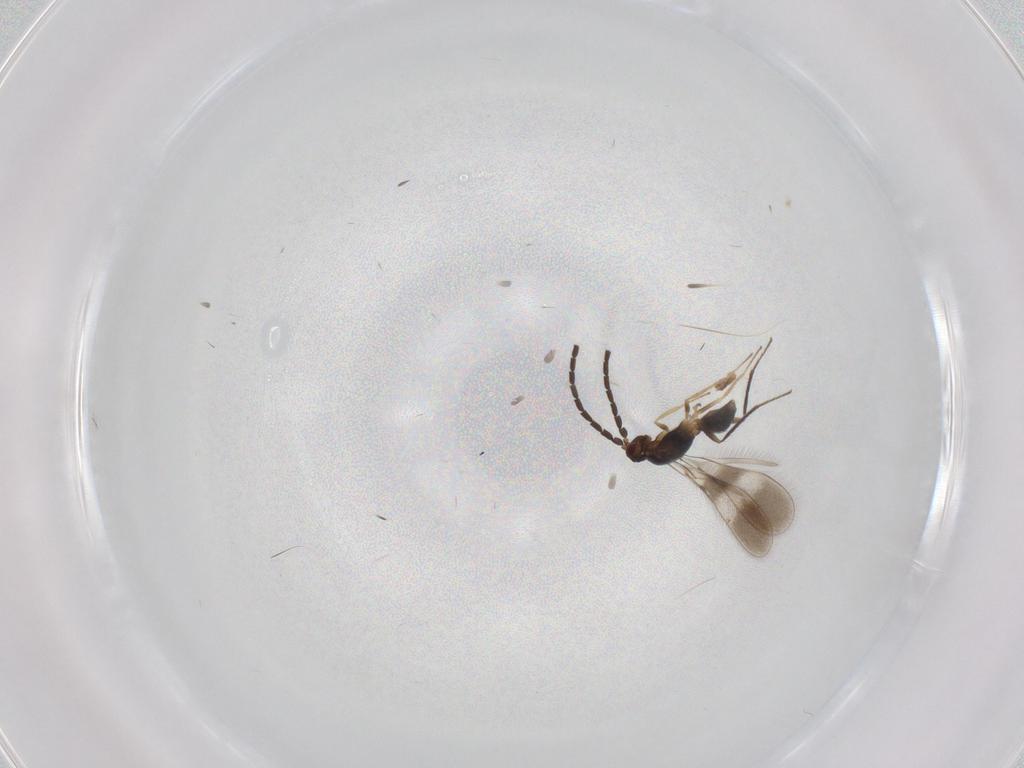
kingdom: Animalia
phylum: Arthropoda
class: Insecta
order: Hymenoptera
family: Mymaridae
